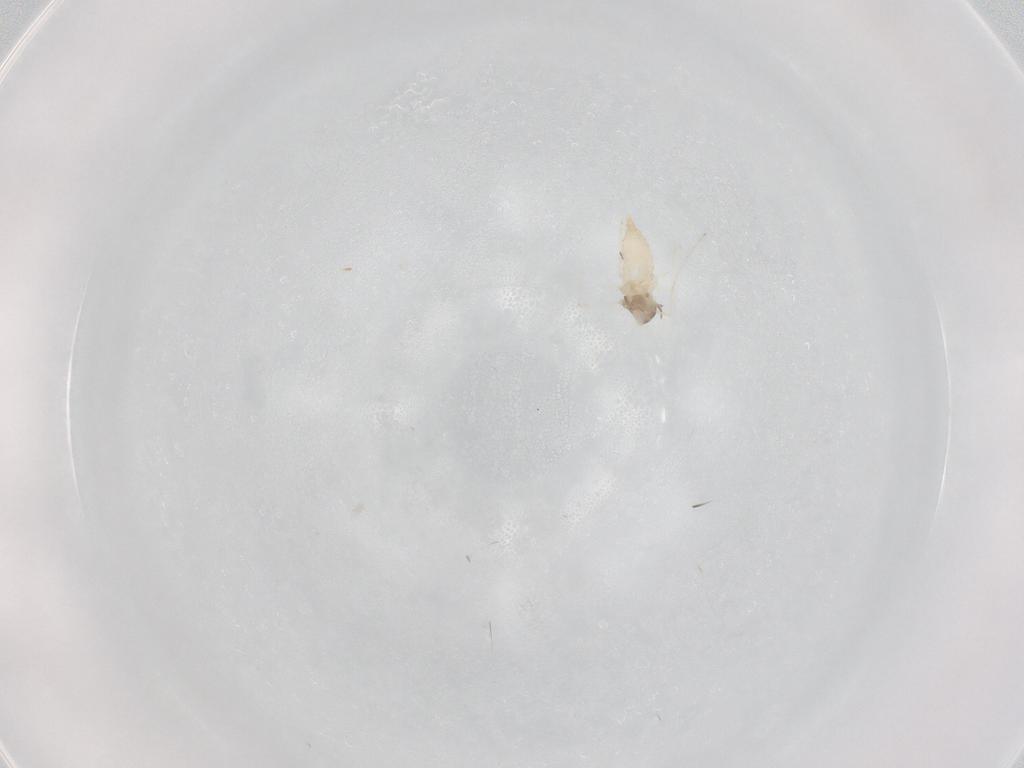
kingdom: Animalia
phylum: Arthropoda
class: Insecta
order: Diptera
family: Cecidomyiidae
